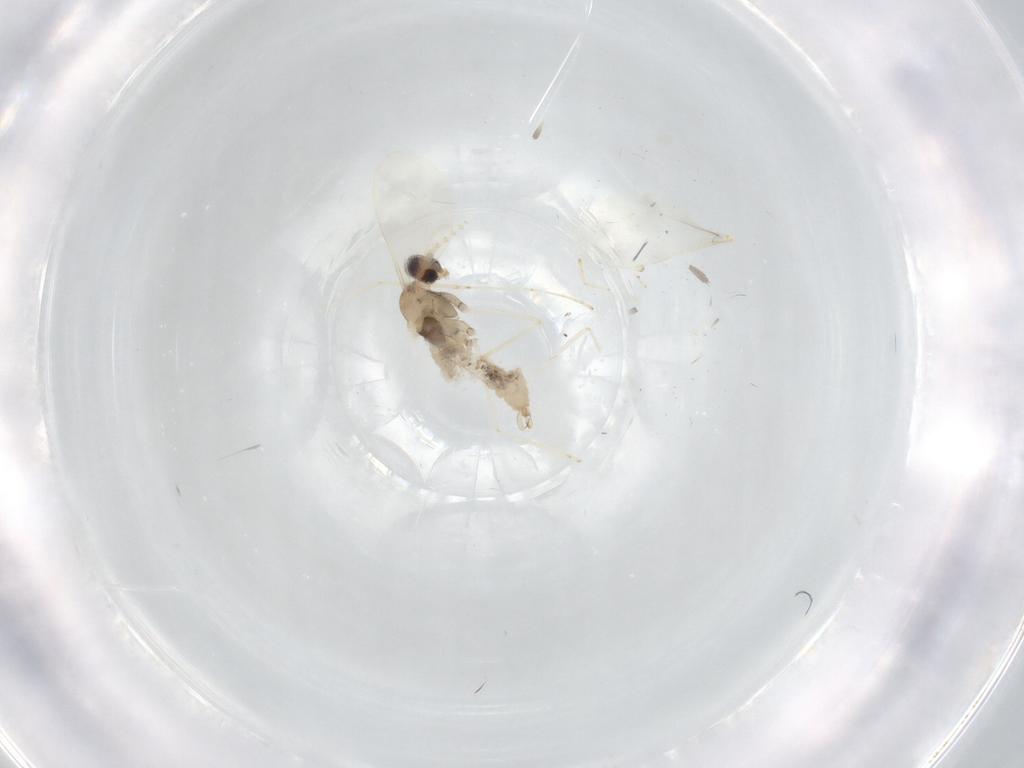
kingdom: Animalia
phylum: Arthropoda
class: Insecta
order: Diptera
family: Cecidomyiidae
